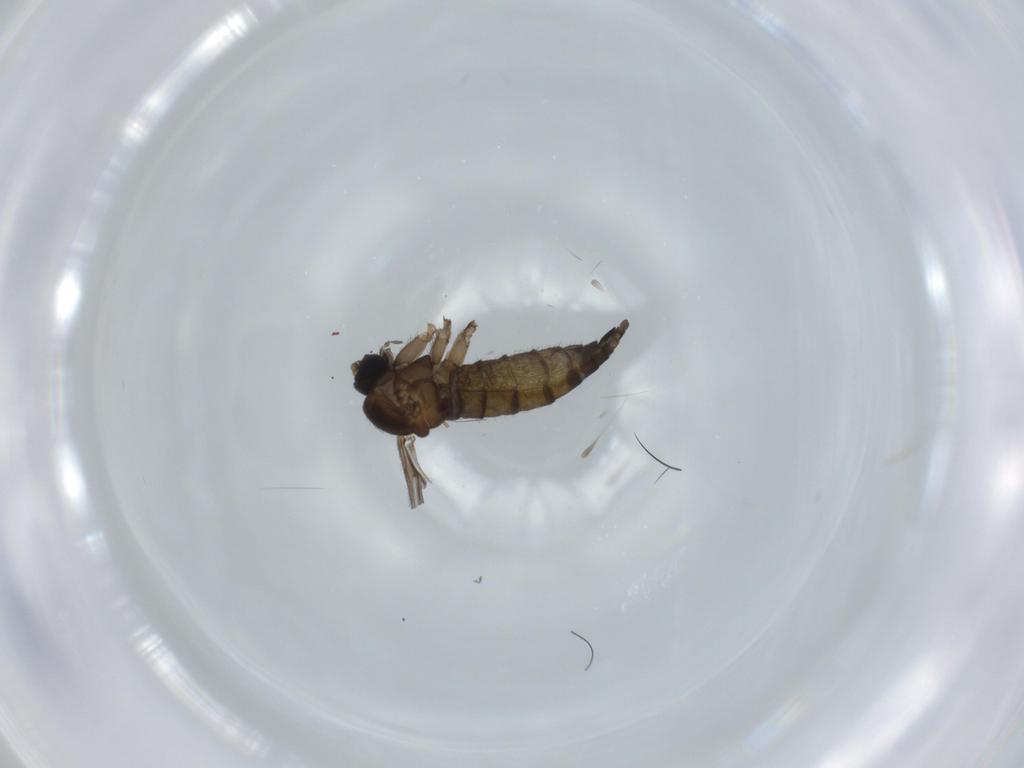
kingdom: Animalia
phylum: Arthropoda
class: Insecta
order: Diptera
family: Sciaridae
